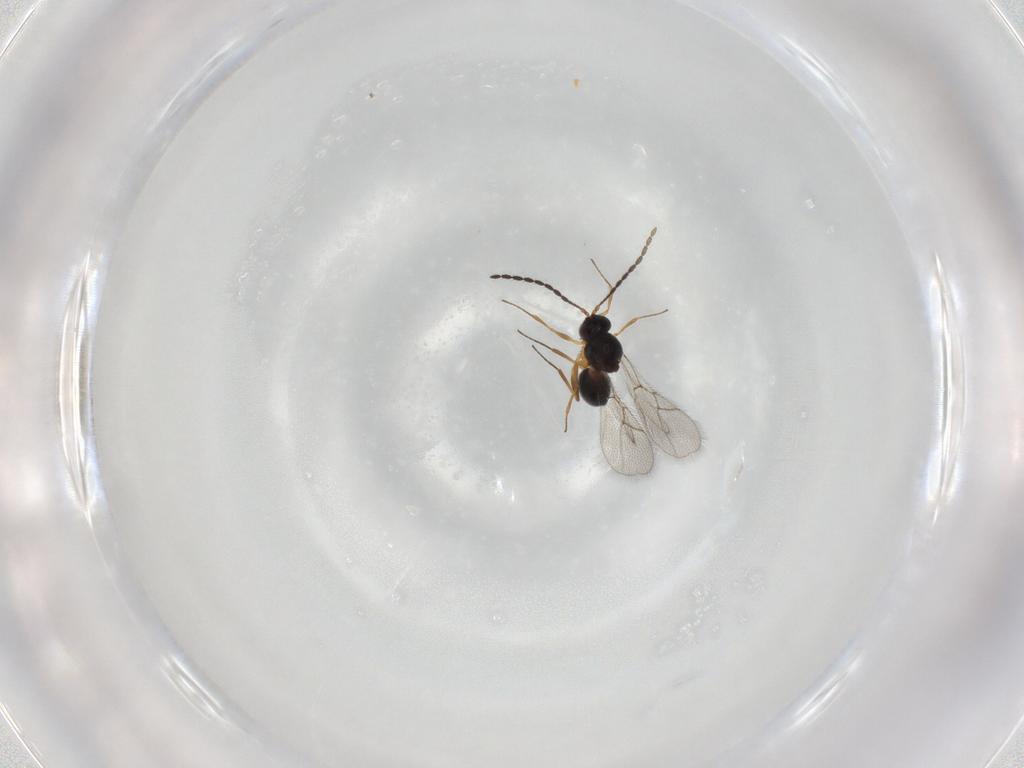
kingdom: Animalia
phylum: Arthropoda
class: Insecta
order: Hymenoptera
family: Figitidae
